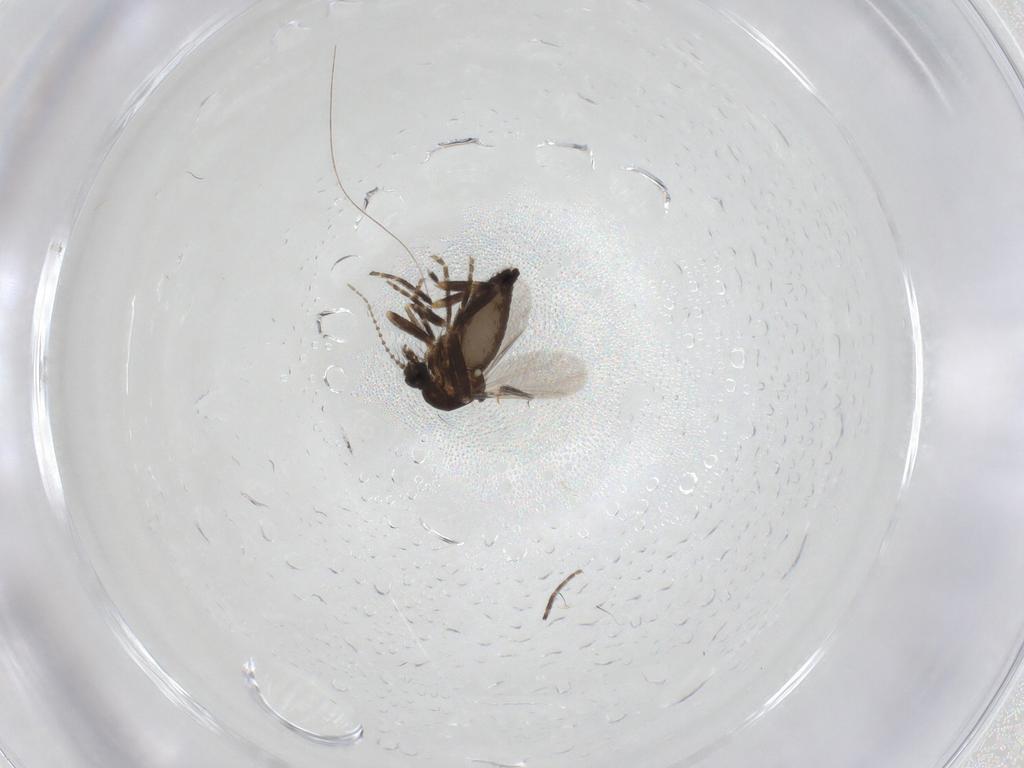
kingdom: Animalia
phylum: Arthropoda
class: Insecta
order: Diptera
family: Ceratopogonidae
